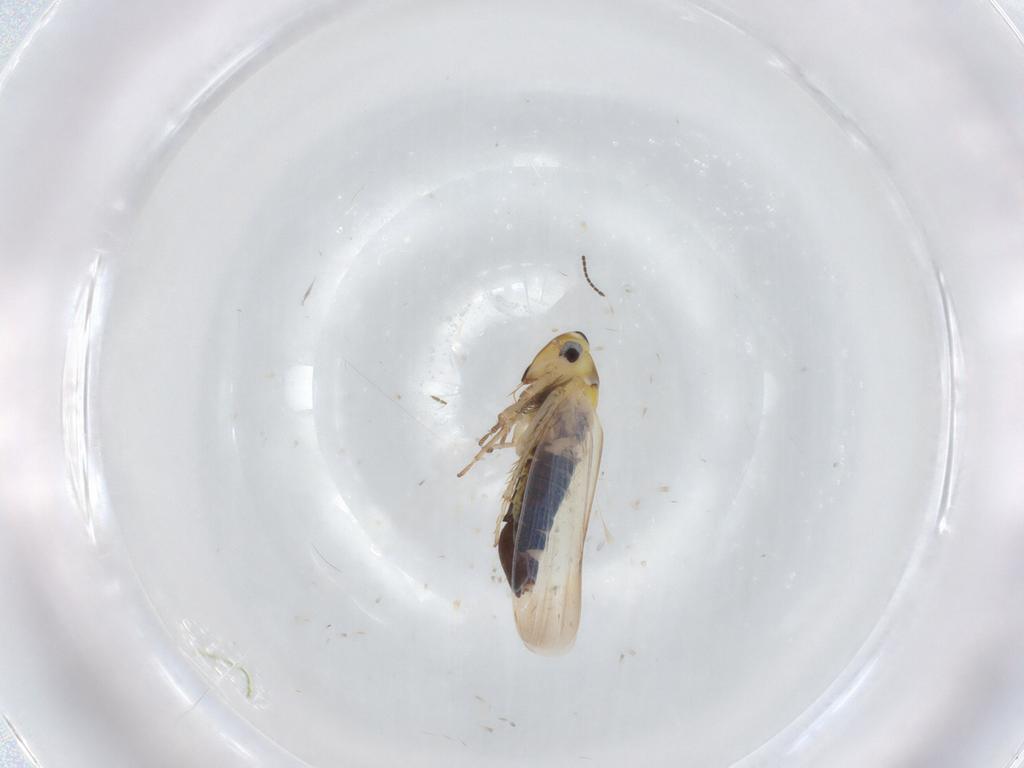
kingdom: Animalia
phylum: Arthropoda
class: Insecta
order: Hemiptera
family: Cicadellidae
